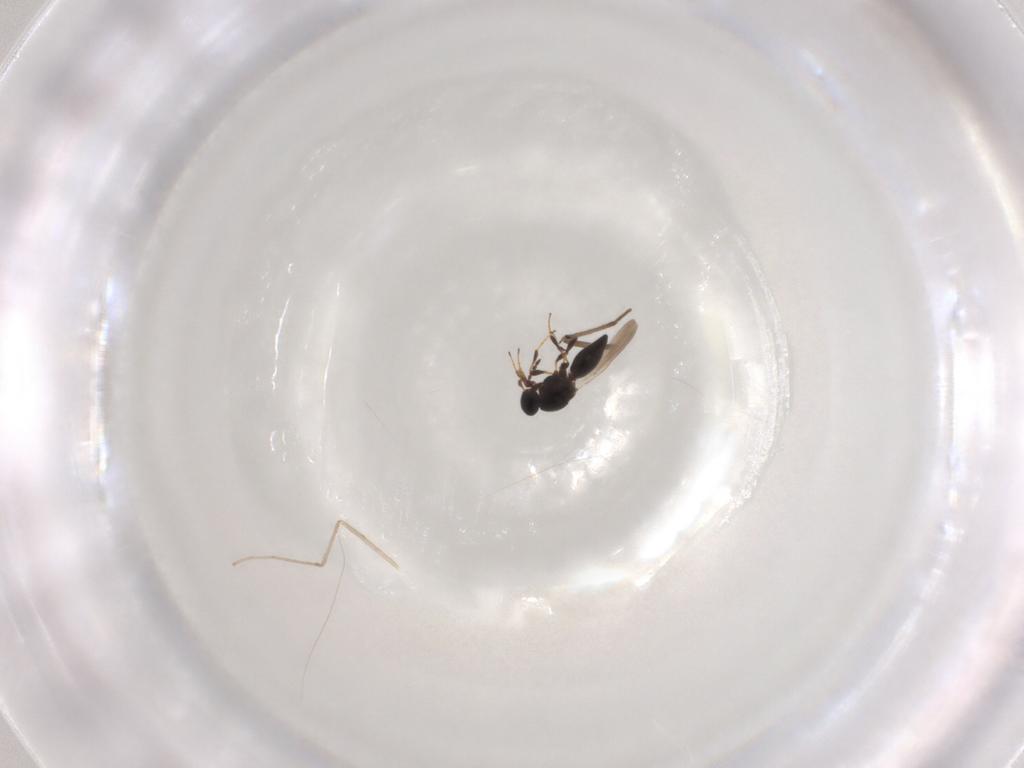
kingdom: Animalia
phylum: Arthropoda
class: Insecta
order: Hymenoptera
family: Platygastridae
